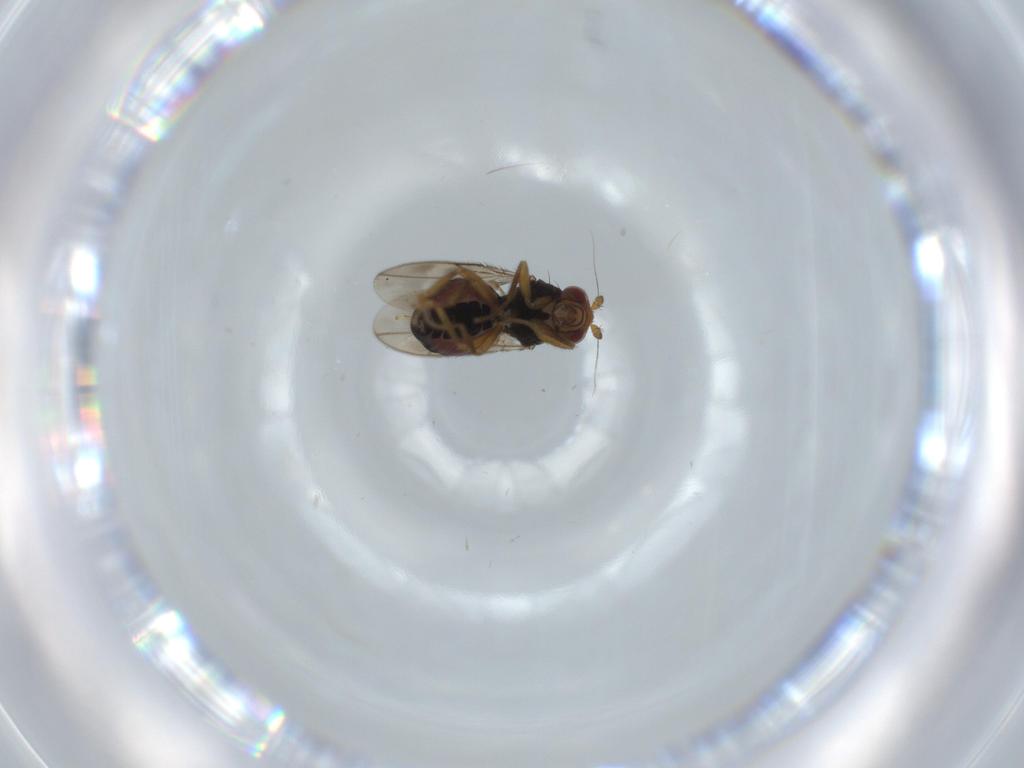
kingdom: Animalia
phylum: Arthropoda
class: Insecta
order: Diptera
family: Sphaeroceridae
